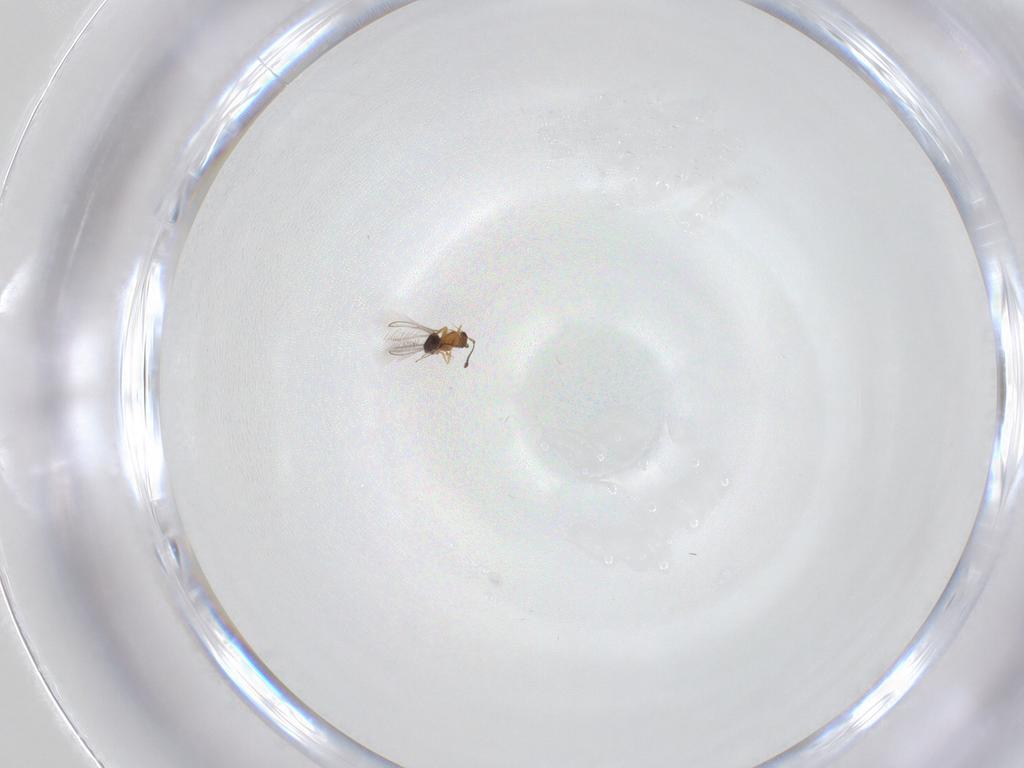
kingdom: Animalia
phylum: Arthropoda
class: Insecta
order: Hymenoptera
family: Mymaridae
